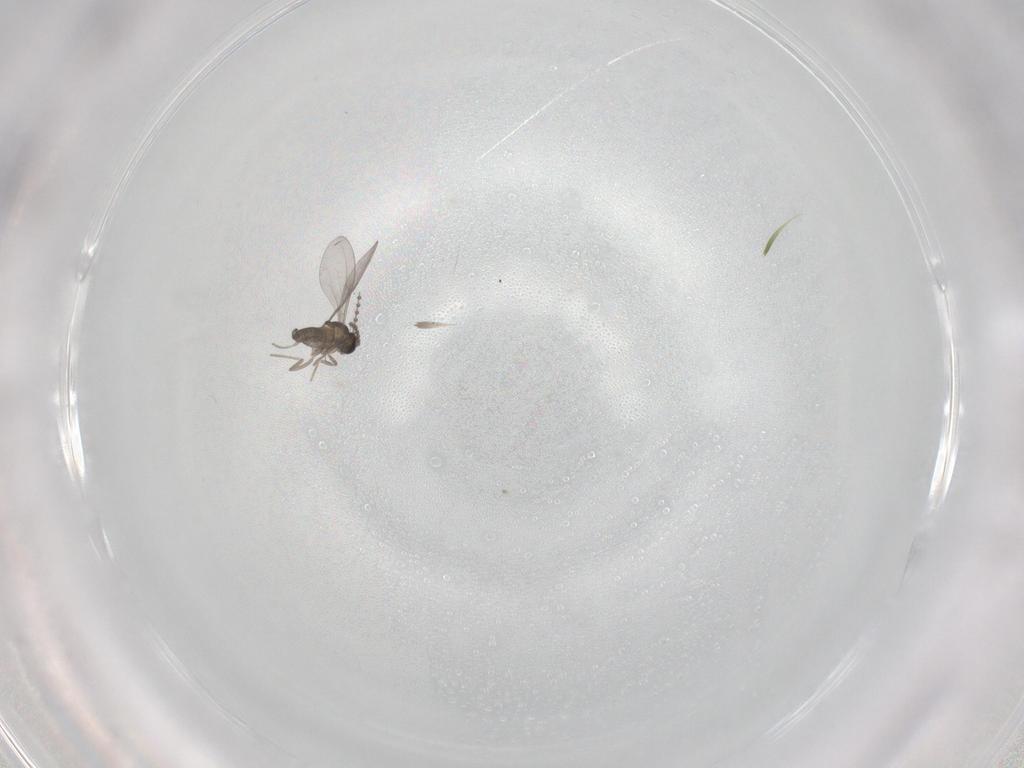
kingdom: Animalia
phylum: Arthropoda
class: Insecta
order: Diptera
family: Cecidomyiidae
